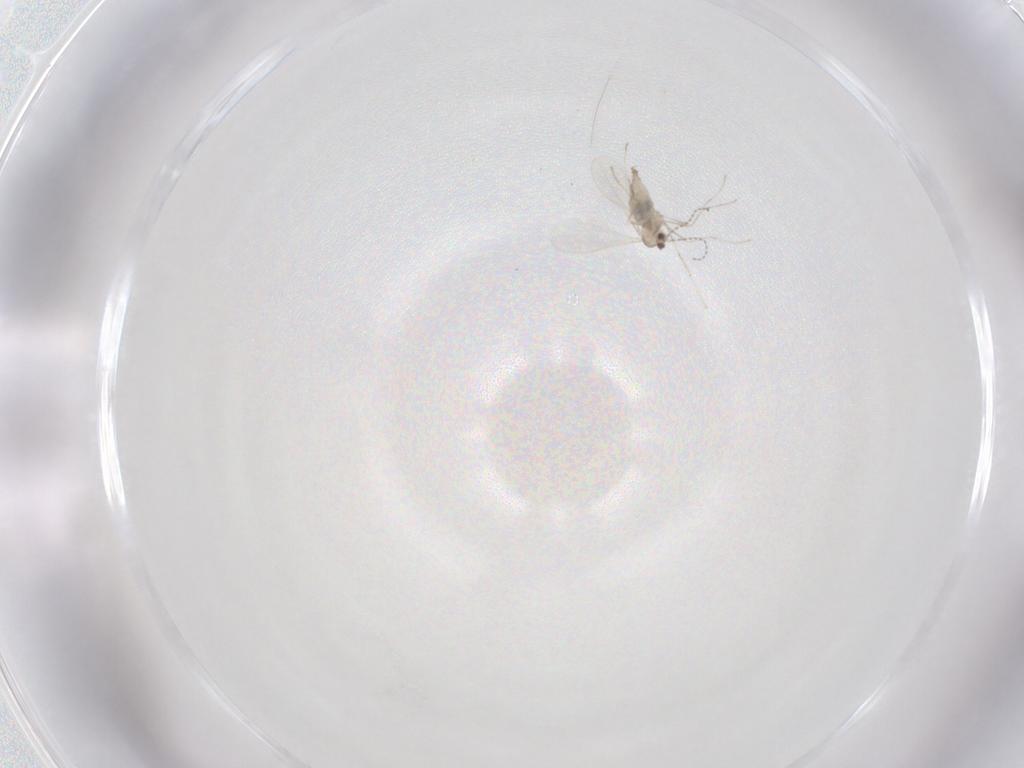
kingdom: Animalia
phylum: Arthropoda
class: Insecta
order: Diptera
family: Cecidomyiidae
